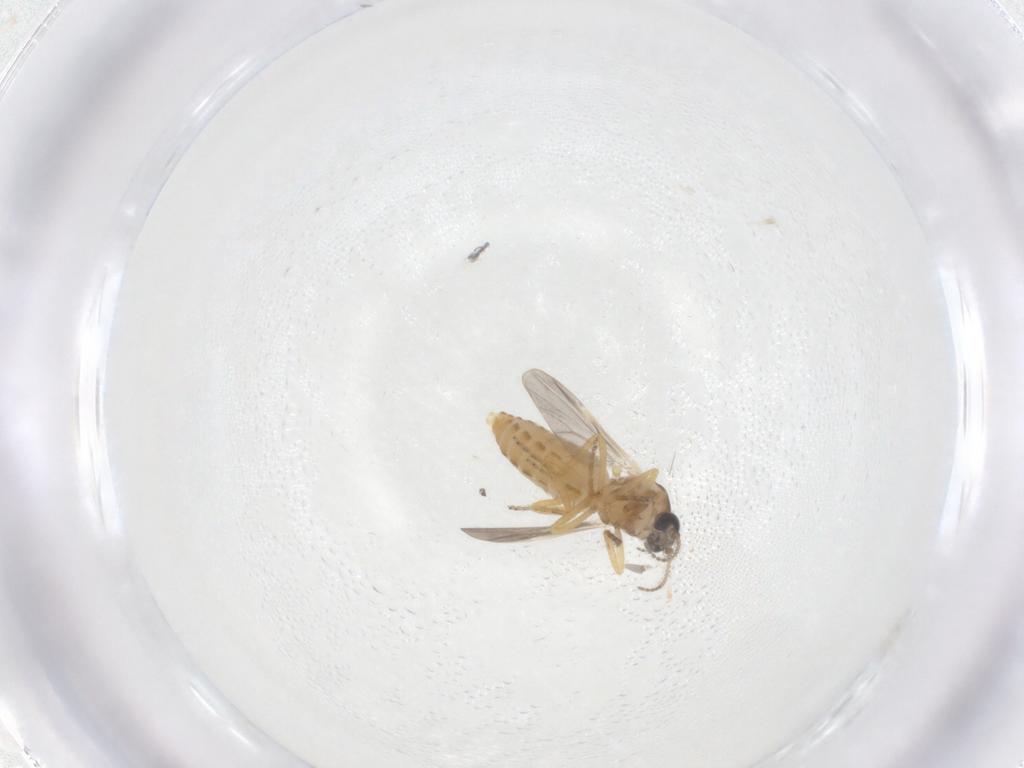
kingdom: Animalia
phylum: Arthropoda
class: Insecta
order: Diptera
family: Ceratopogonidae
